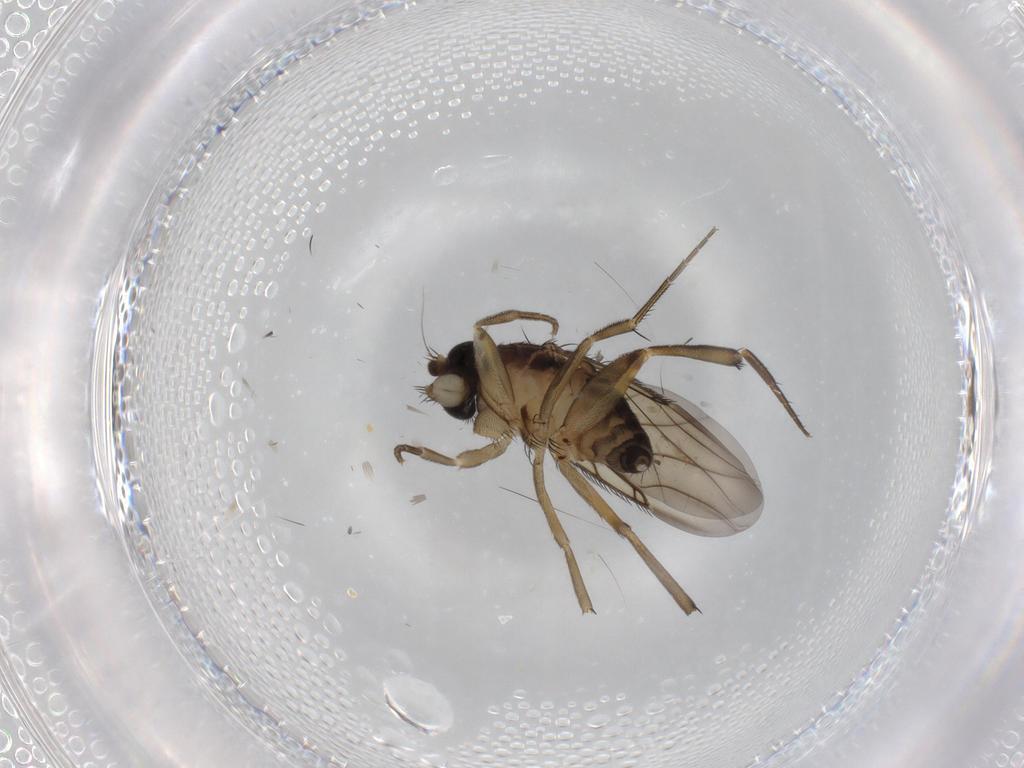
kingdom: Animalia
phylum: Arthropoda
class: Insecta
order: Diptera
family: Phoridae
